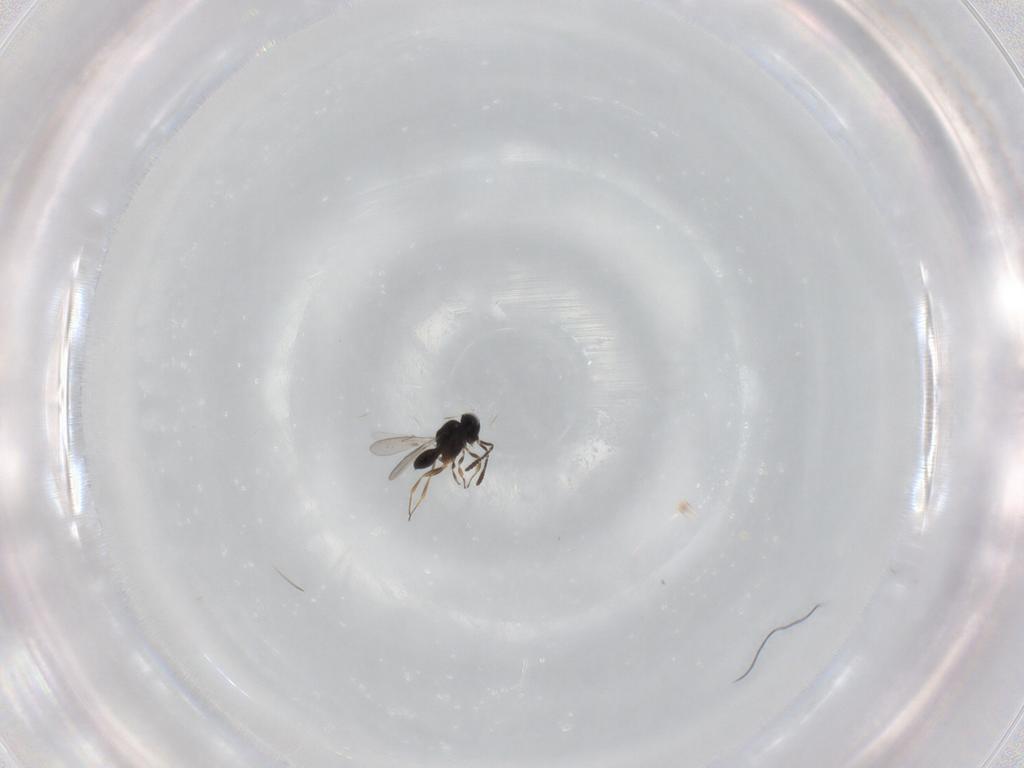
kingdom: Animalia
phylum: Arthropoda
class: Insecta
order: Hymenoptera
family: Scelionidae
